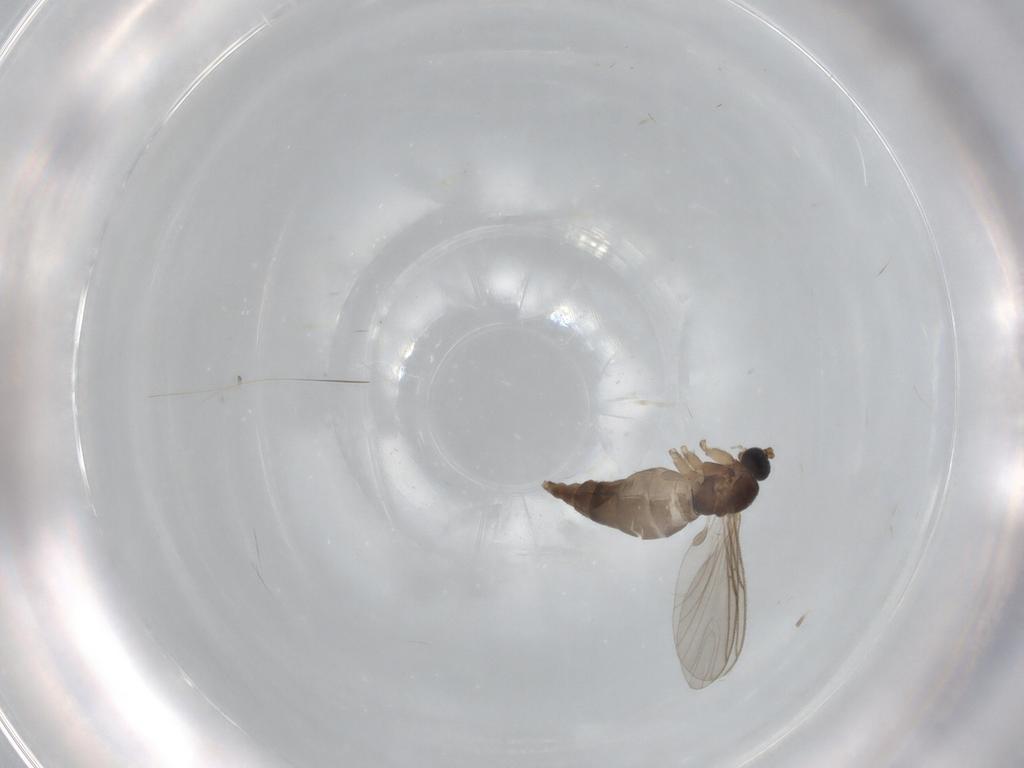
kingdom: Animalia
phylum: Arthropoda
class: Insecta
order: Diptera
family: Sciaridae
